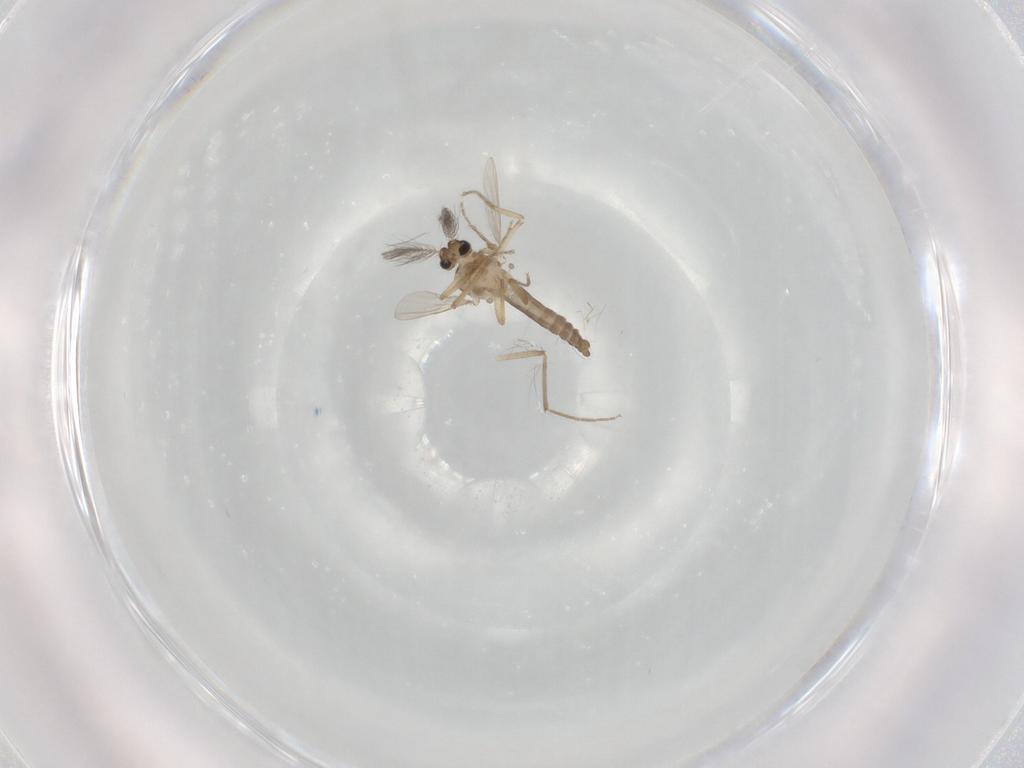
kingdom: Animalia
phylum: Arthropoda
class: Insecta
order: Diptera
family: Ceratopogonidae
